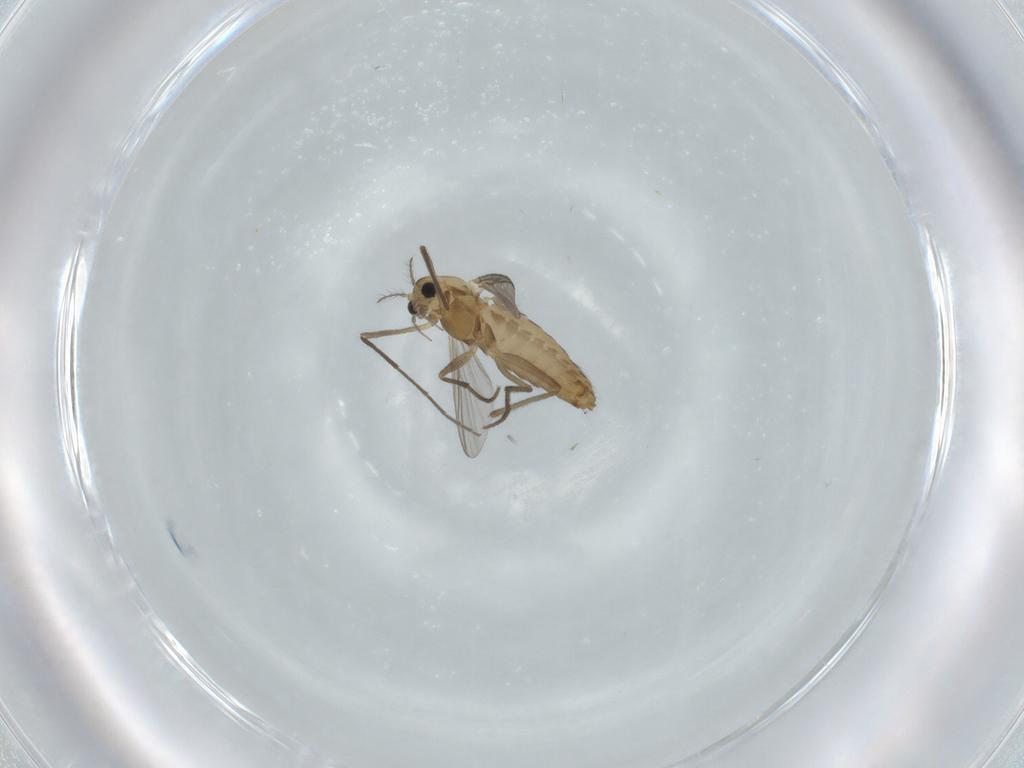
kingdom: Animalia
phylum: Arthropoda
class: Insecta
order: Diptera
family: Chironomidae
